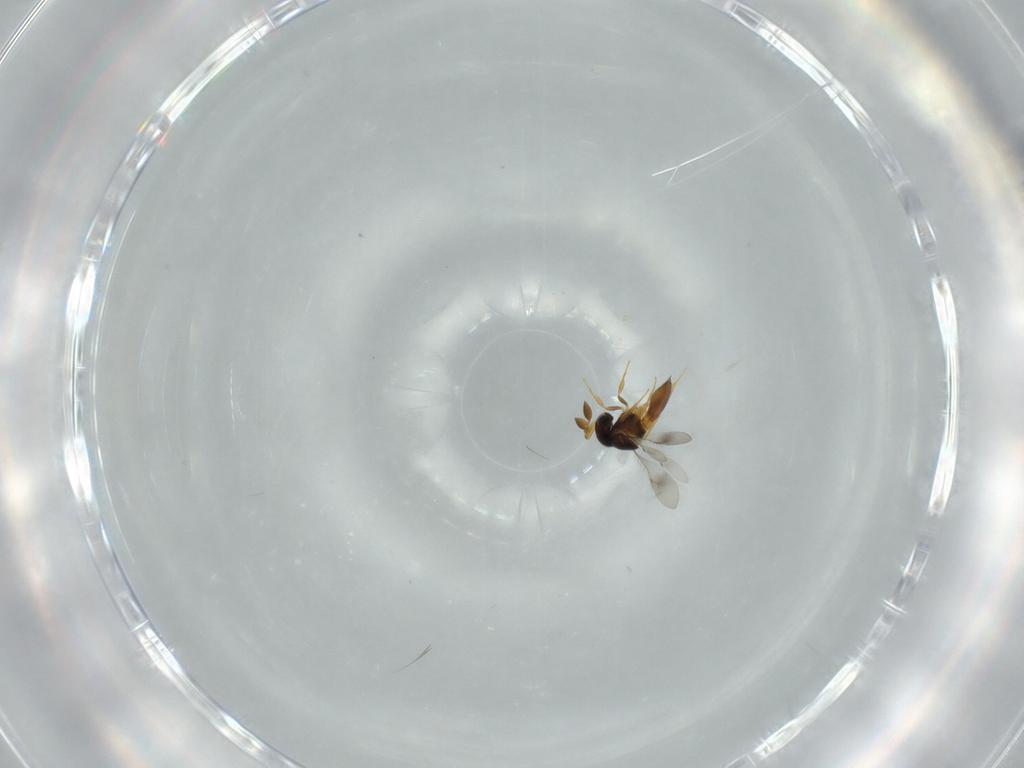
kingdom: Animalia
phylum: Arthropoda
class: Insecta
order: Hymenoptera
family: Scelionidae
